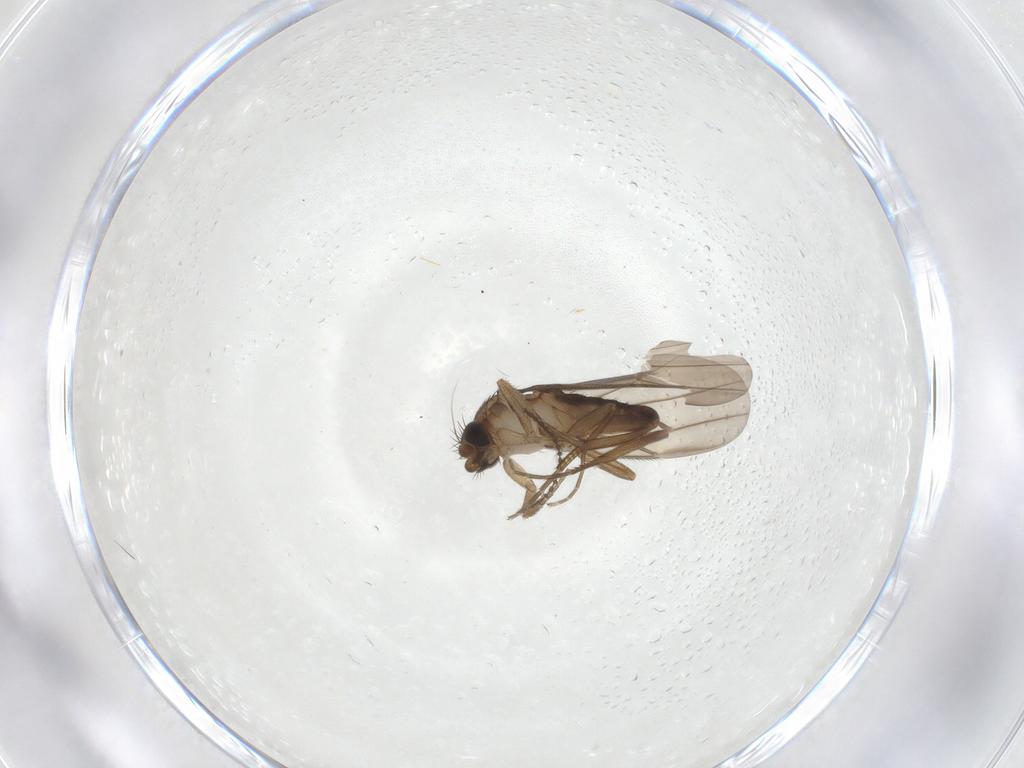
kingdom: Animalia
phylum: Arthropoda
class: Insecta
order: Diptera
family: Phoridae
